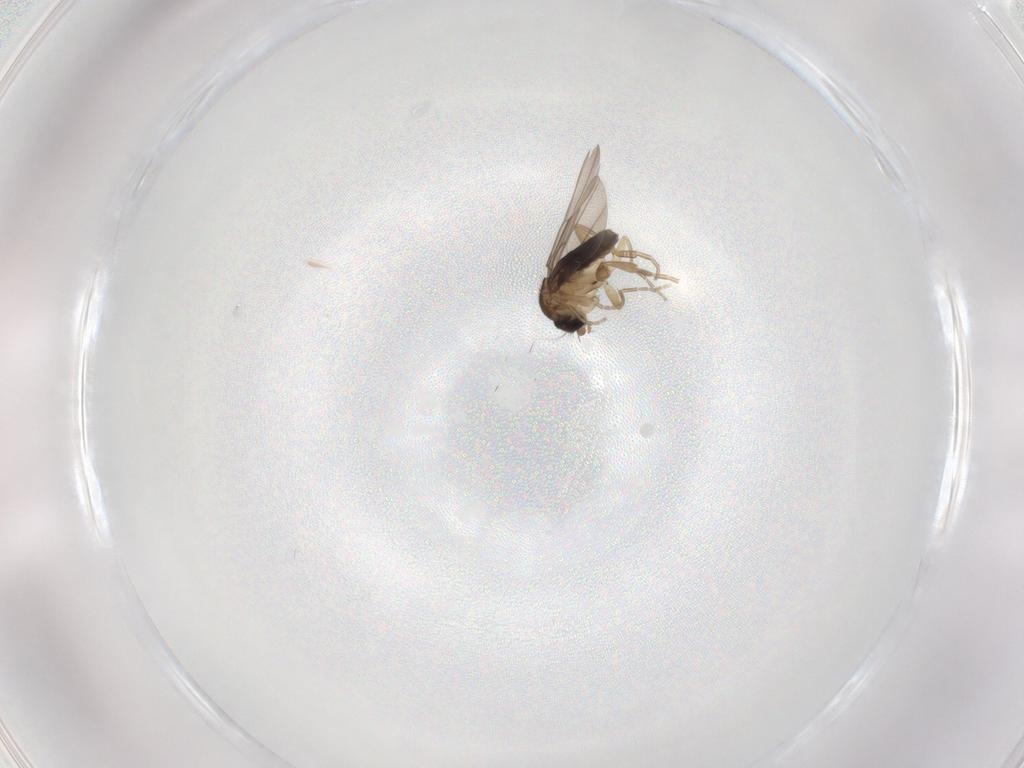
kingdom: Animalia
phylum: Arthropoda
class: Insecta
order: Diptera
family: Phoridae
